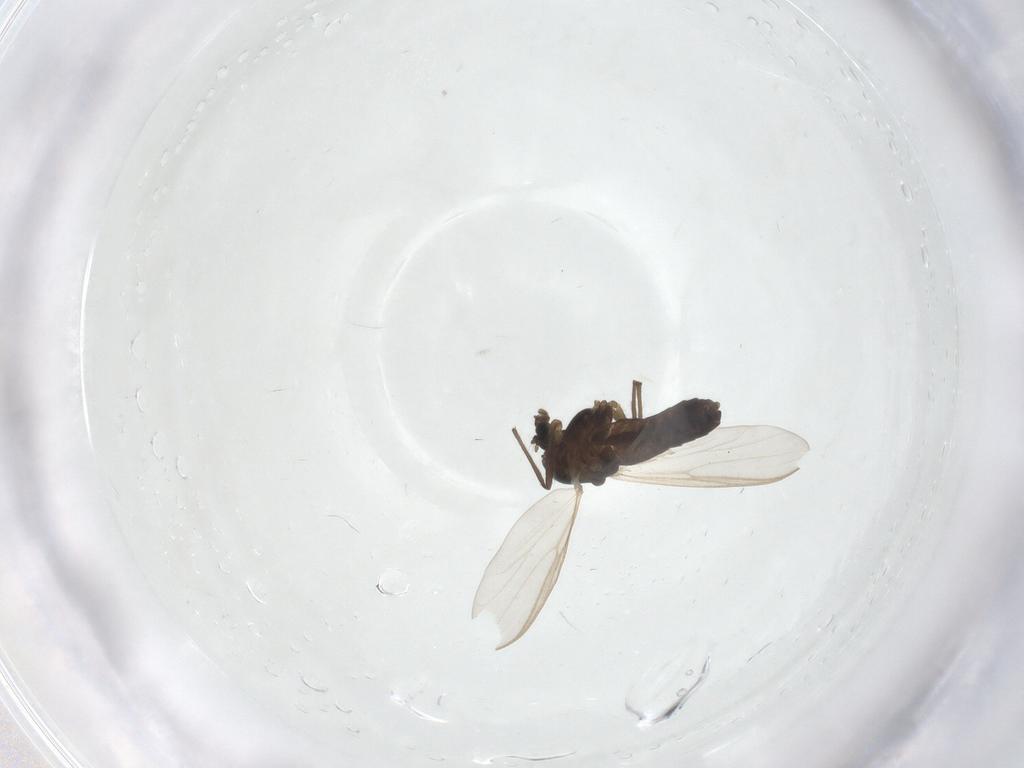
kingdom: Animalia
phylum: Arthropoda
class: Insecta
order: Diptera
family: Chironomidae
